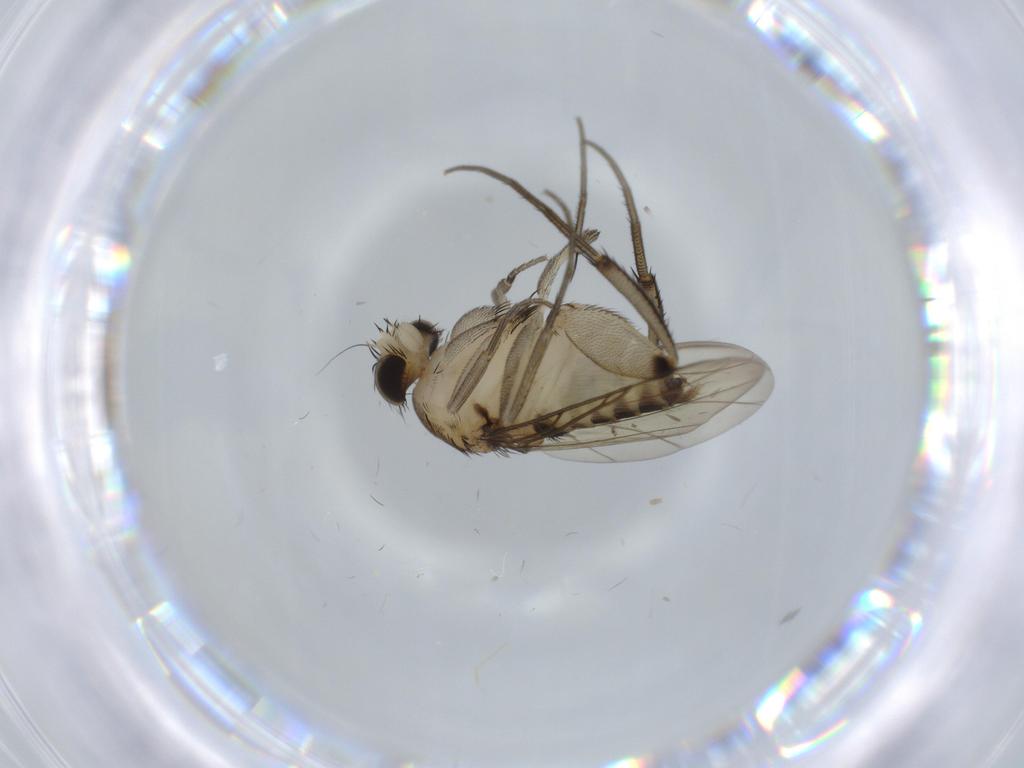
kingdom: Animalia
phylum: Arthropoda
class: Insecta
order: Diptera
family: Phoridae
